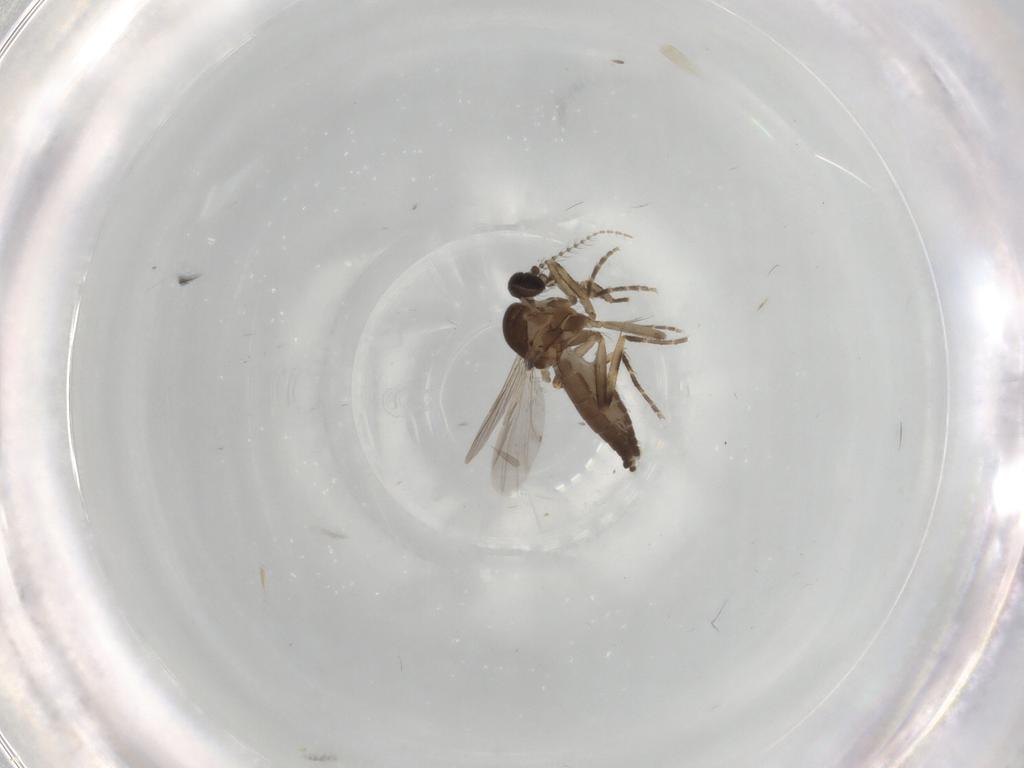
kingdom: Animalia
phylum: Arthropoda
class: Insecta
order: Diptera
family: Ceratopogonidae
